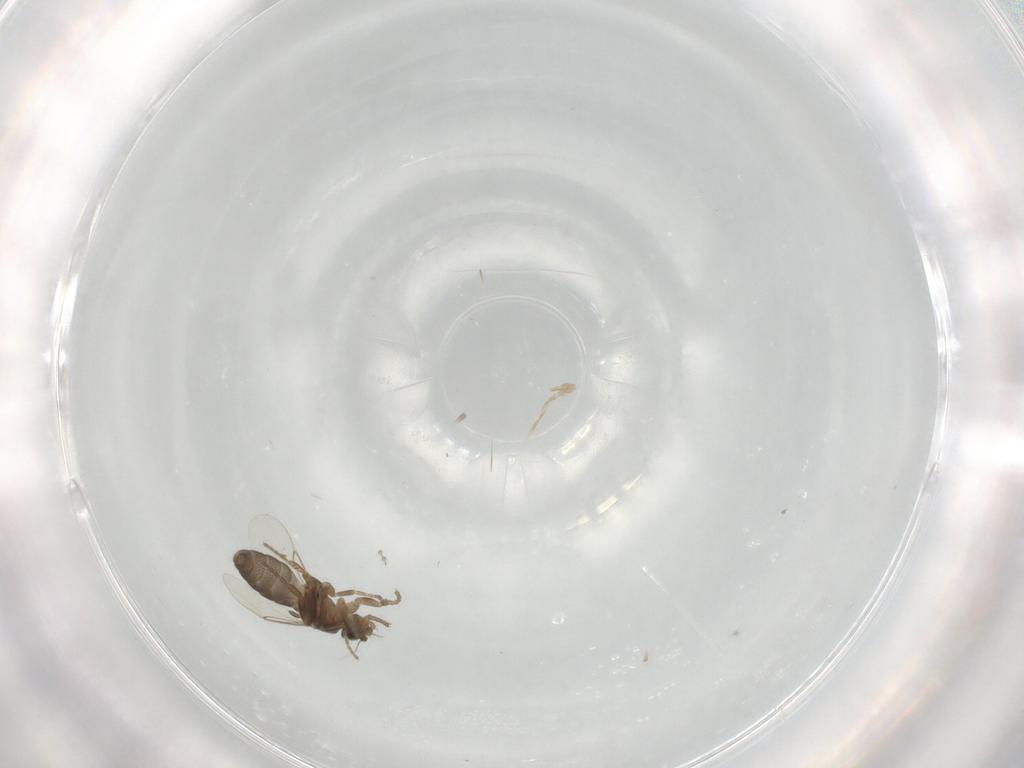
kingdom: Animalia
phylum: Arthropoda
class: Insecta
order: Diptera
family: Phoridae
